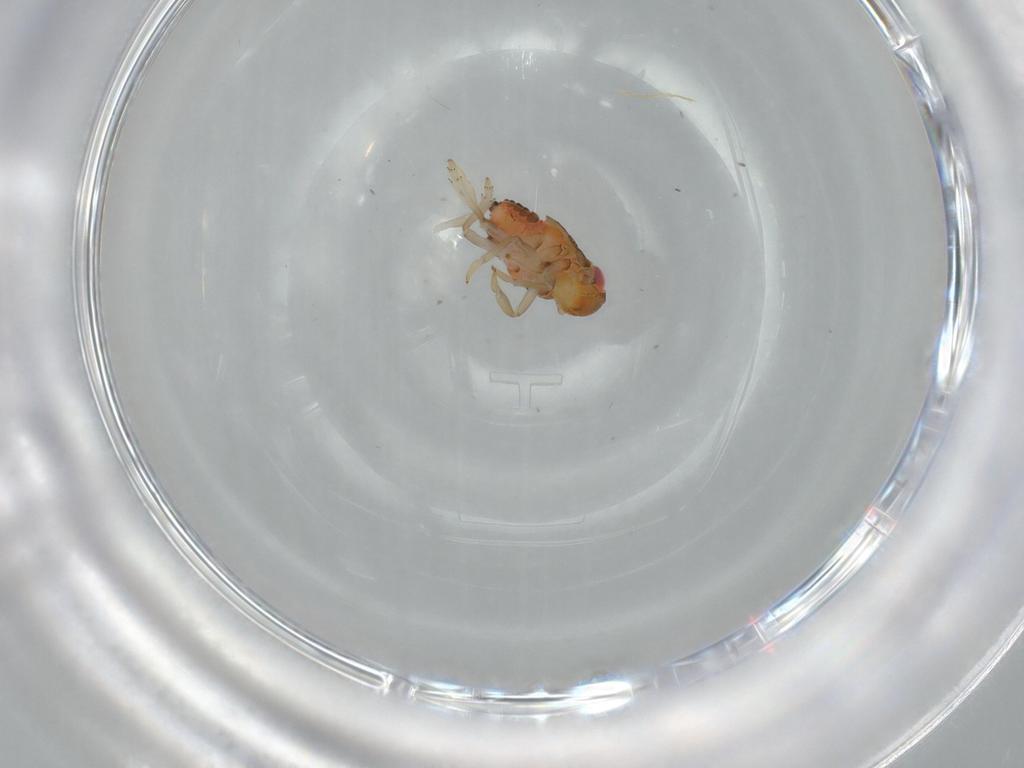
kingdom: Animalia
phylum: Arthropoda
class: Insecta
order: Hemiptera
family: Issidae
